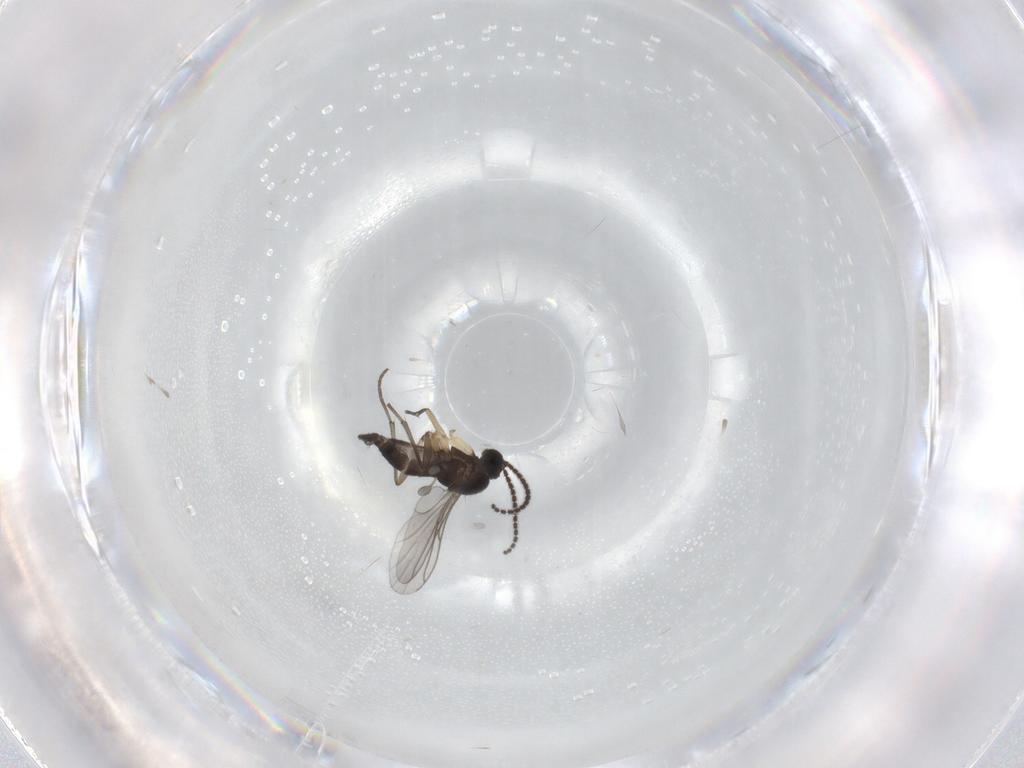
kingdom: Animalia
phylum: Arthropoda
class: Insecta
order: Diptera
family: Sciaridae
